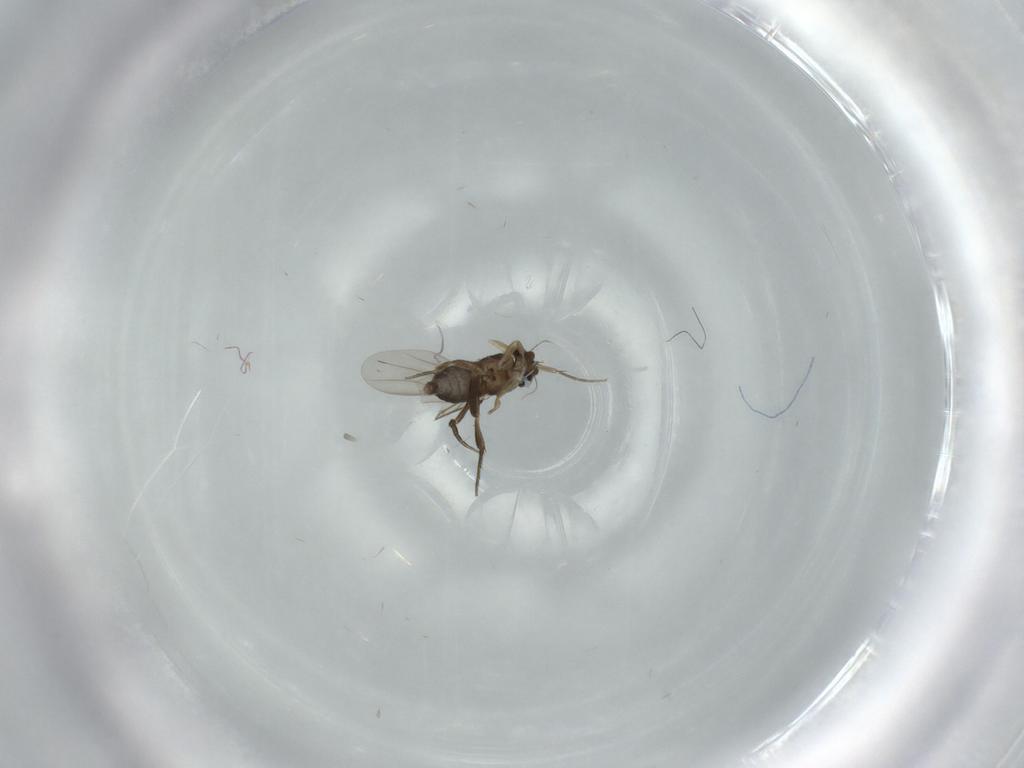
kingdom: Animalia
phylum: Arthropoda
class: Insecta
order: Diptera
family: Phoridae
